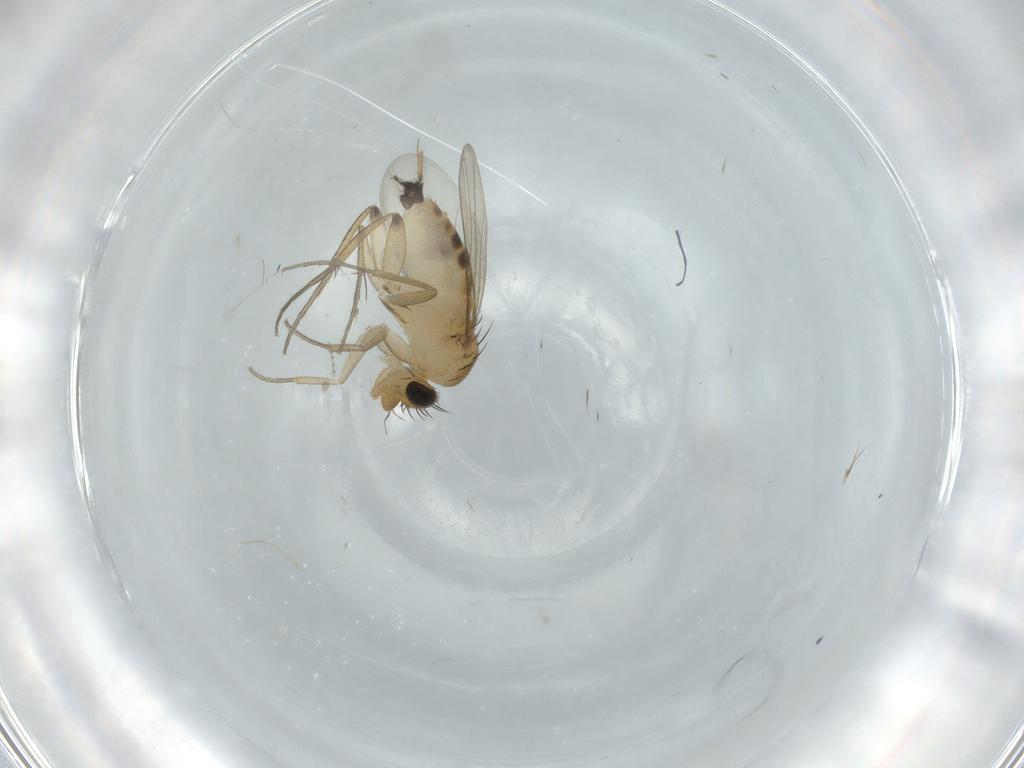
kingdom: Animalia
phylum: Arthropoda
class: Insecta
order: Diptera
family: Phoridae
